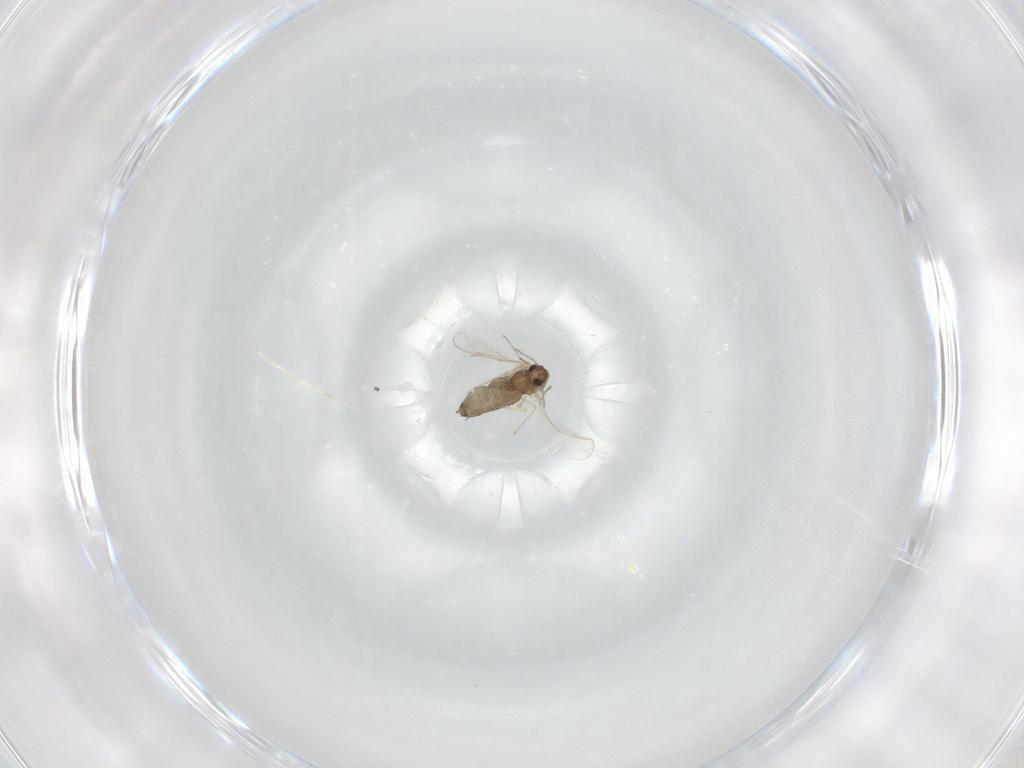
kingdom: Animalia
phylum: Arthropoda
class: Insecta
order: Diptera
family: Chironomidae
